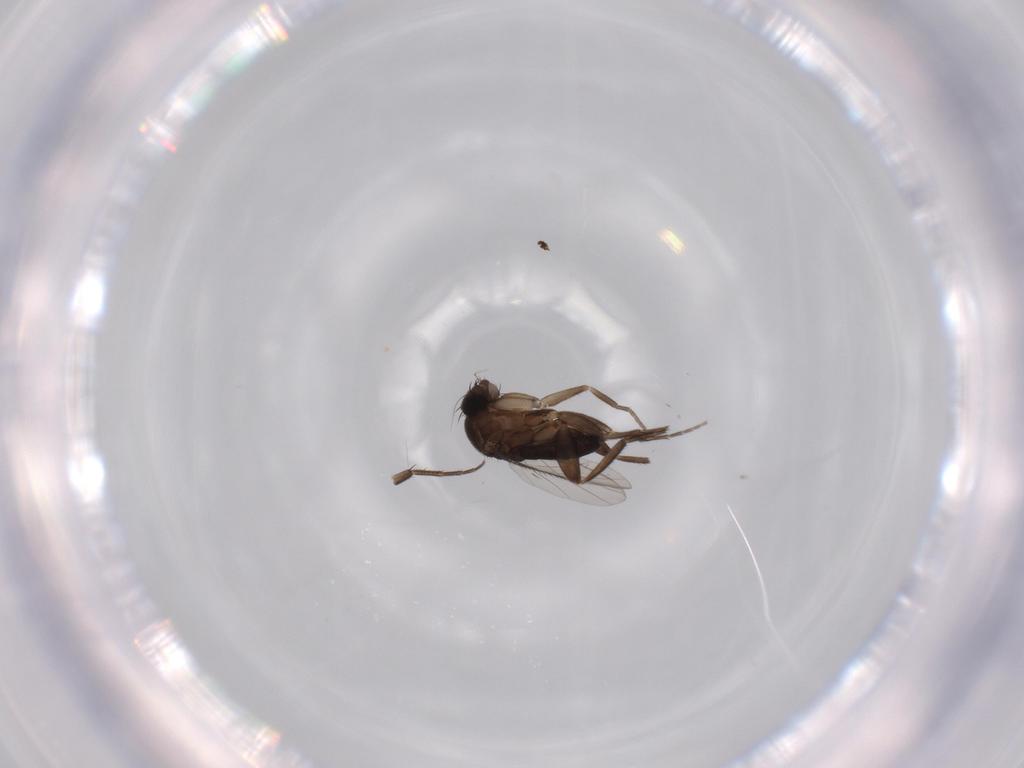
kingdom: Animalia
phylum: Arthropoda
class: Insecta
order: Diptera
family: Phoridae
